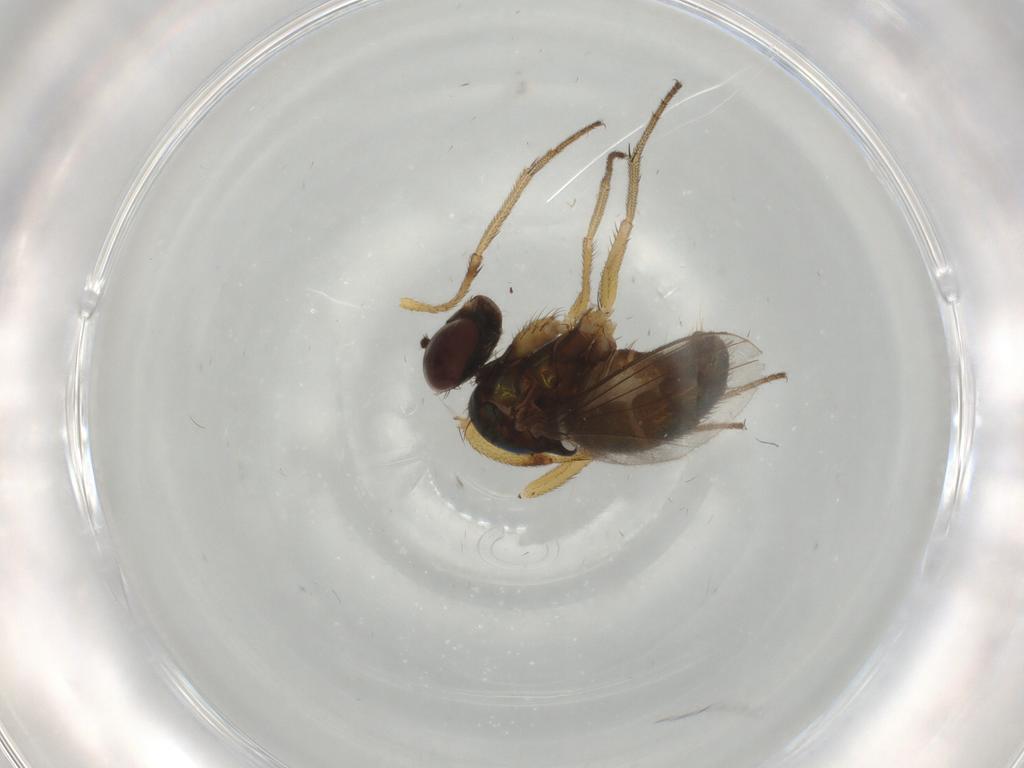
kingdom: Animalia
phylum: Arthropoda
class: Insecta
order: Diptera
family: Dolichopodidae
